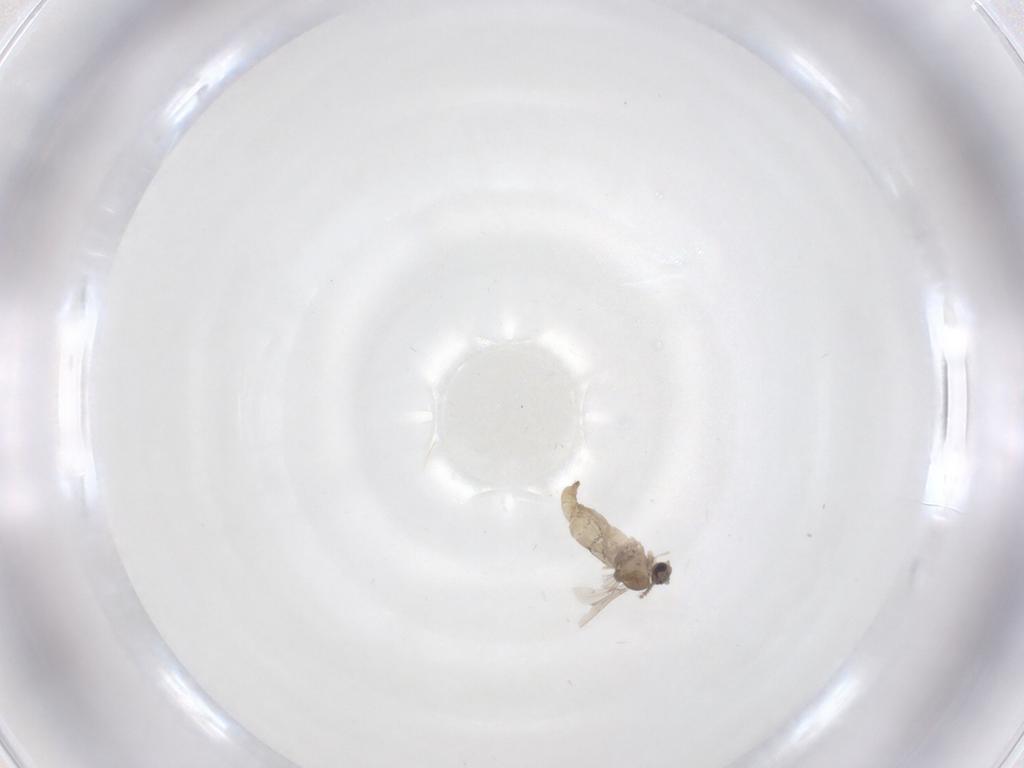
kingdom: Animalia
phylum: Arthropoda
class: Insecta
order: Diptera
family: Cecidomyiidae
